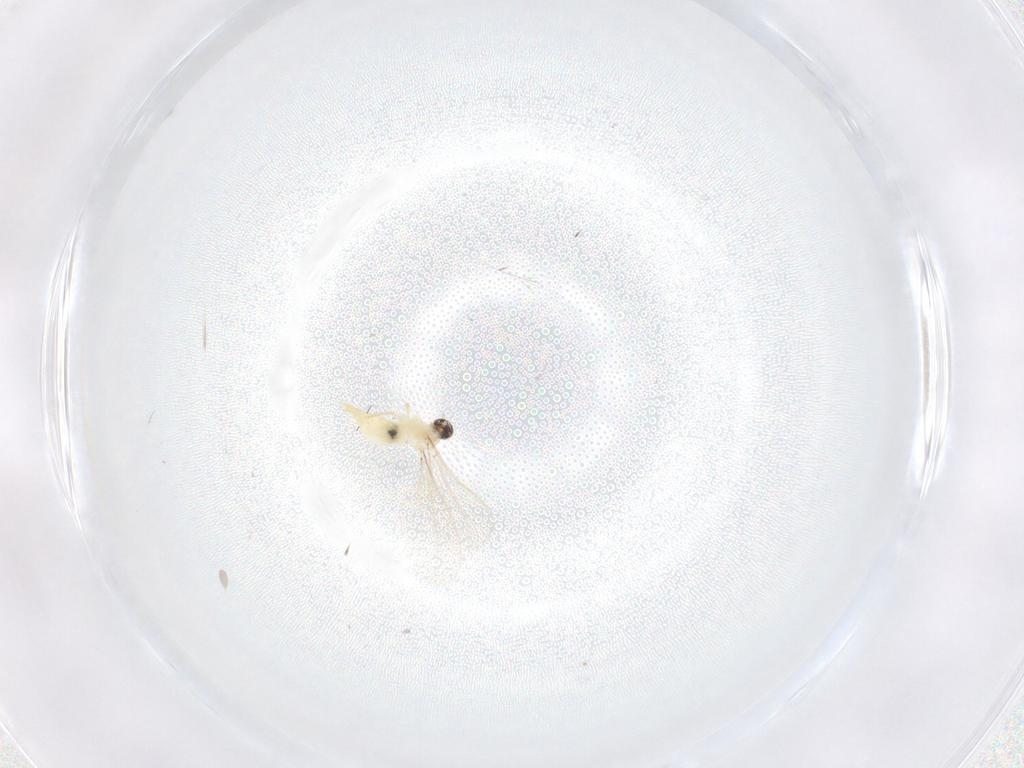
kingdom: Animalia
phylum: Arthropoda
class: Insecta
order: Diptera
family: Cecidomyiidae
